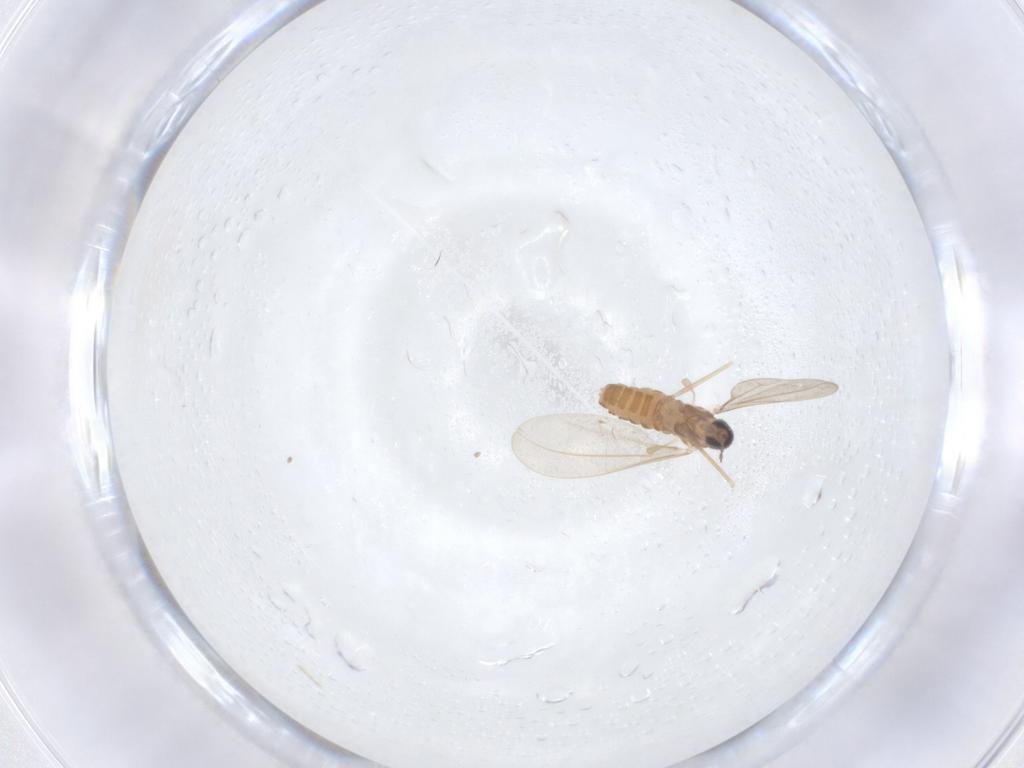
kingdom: Animalia
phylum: Arthropoda
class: Insecta
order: Diptera
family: Cecidomyiidae
